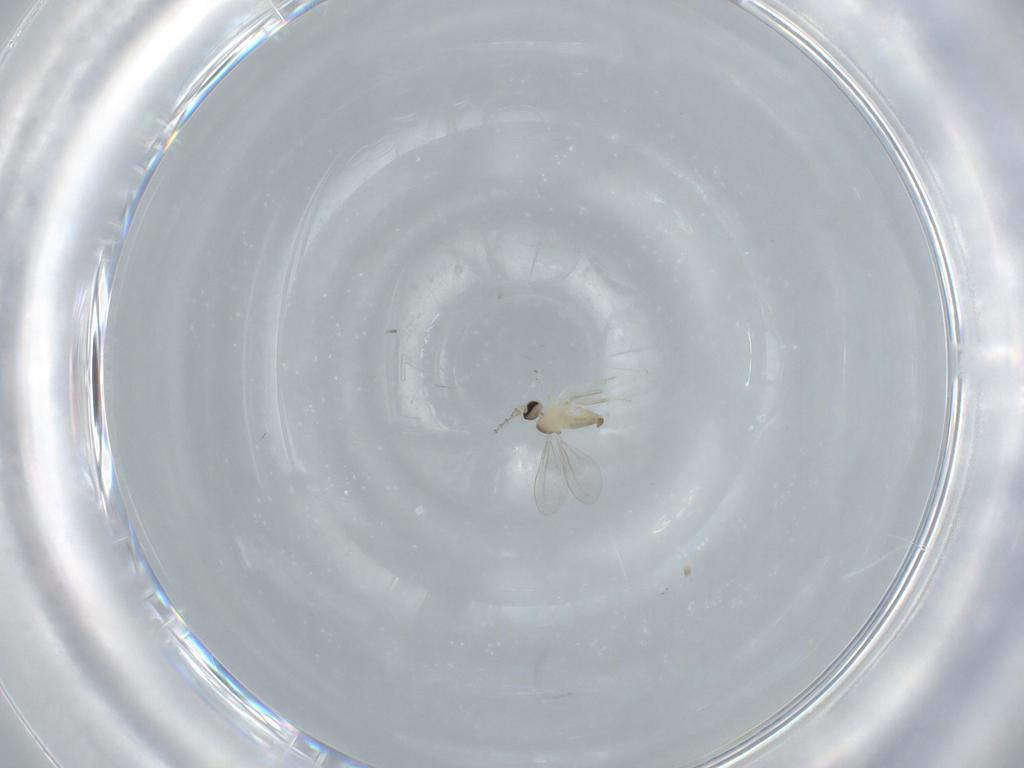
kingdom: Animalia
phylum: Arthropoda
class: Insecta
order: Diptera
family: Cecidomyiidae
